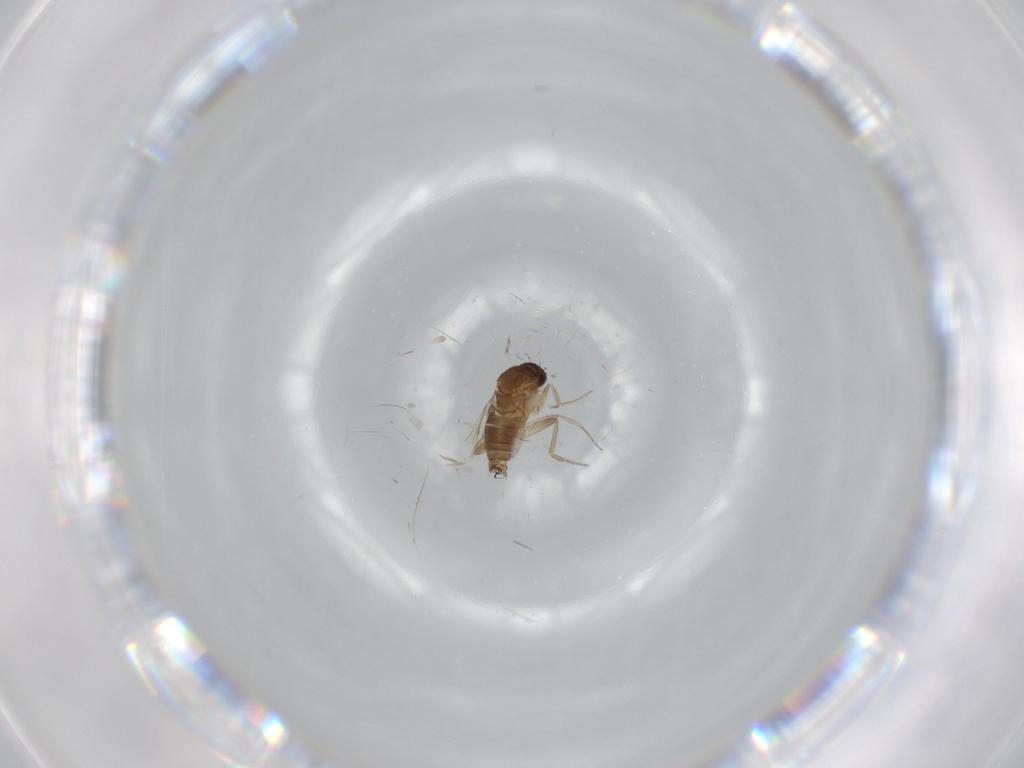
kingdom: Animalia
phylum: Arthropoda
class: Insecta
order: Diptera
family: Phoridae
